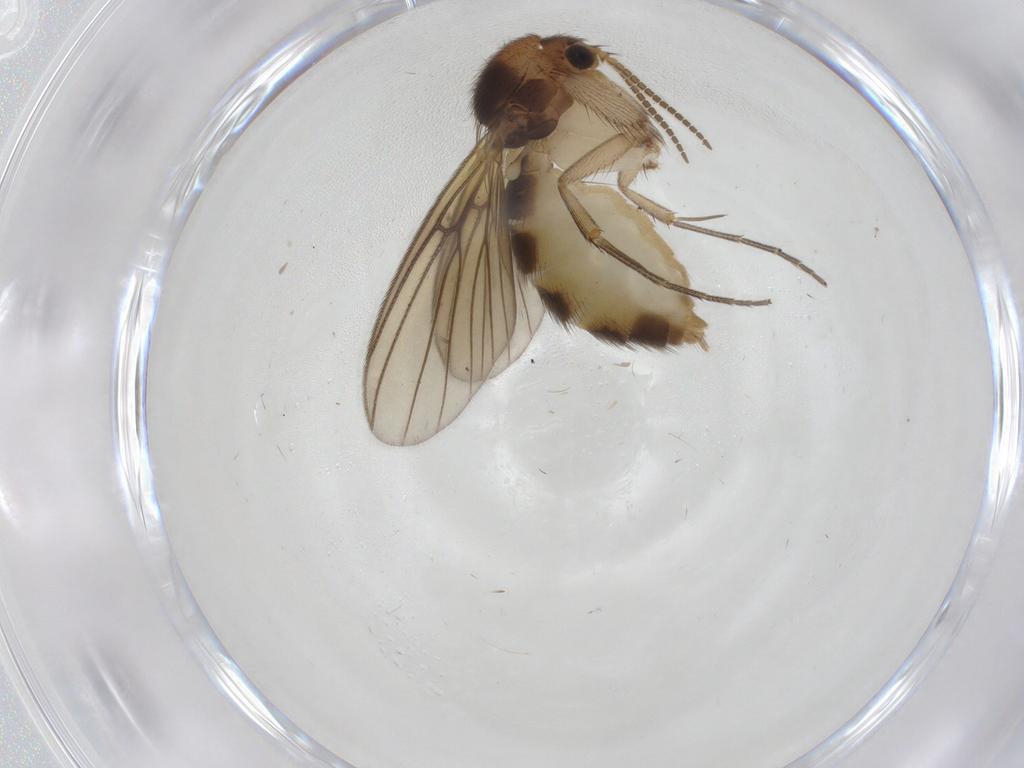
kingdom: Animalia
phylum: Arthropoda
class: Insecta
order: Diptera
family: Mycetophilidae
